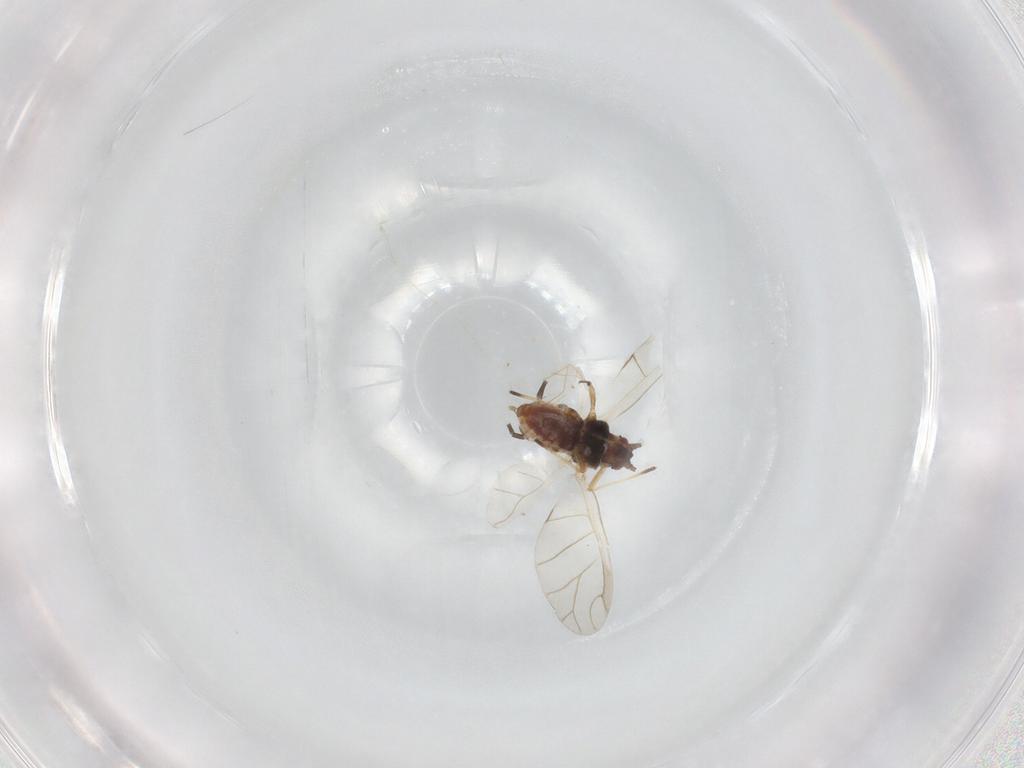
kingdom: Animalia
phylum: Arthropoda
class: Insecta
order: Hemiptera
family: Aphididae
